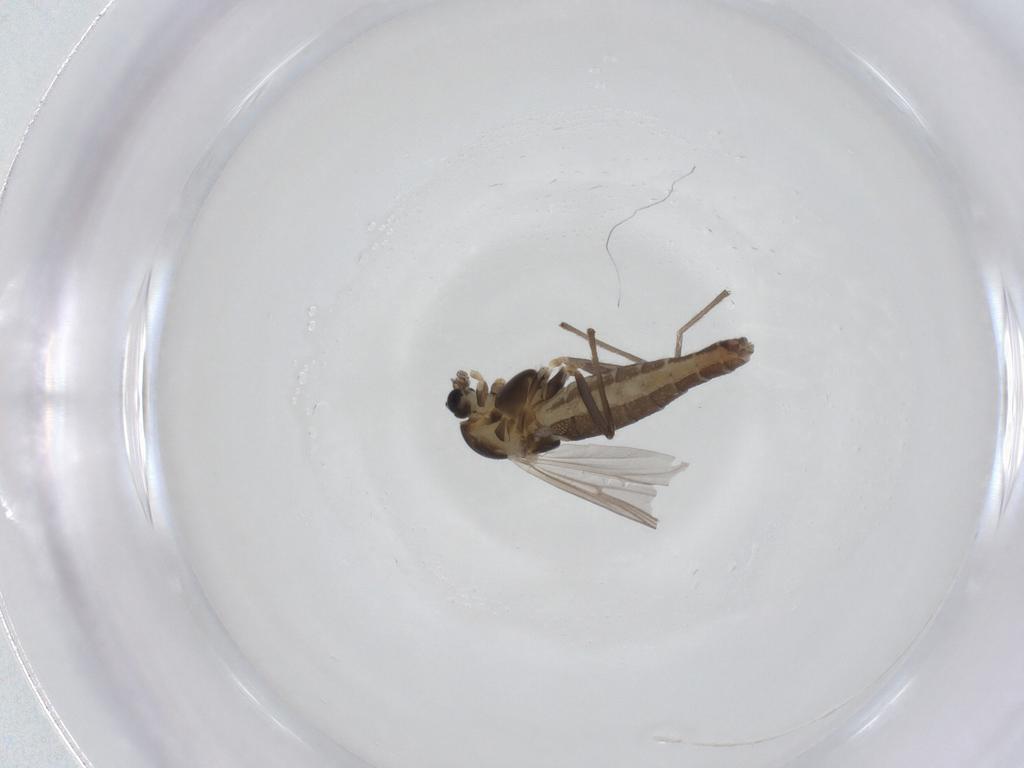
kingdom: Animalia
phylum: Arthropoda
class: Insecta
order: Diptera
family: Chironomidae
